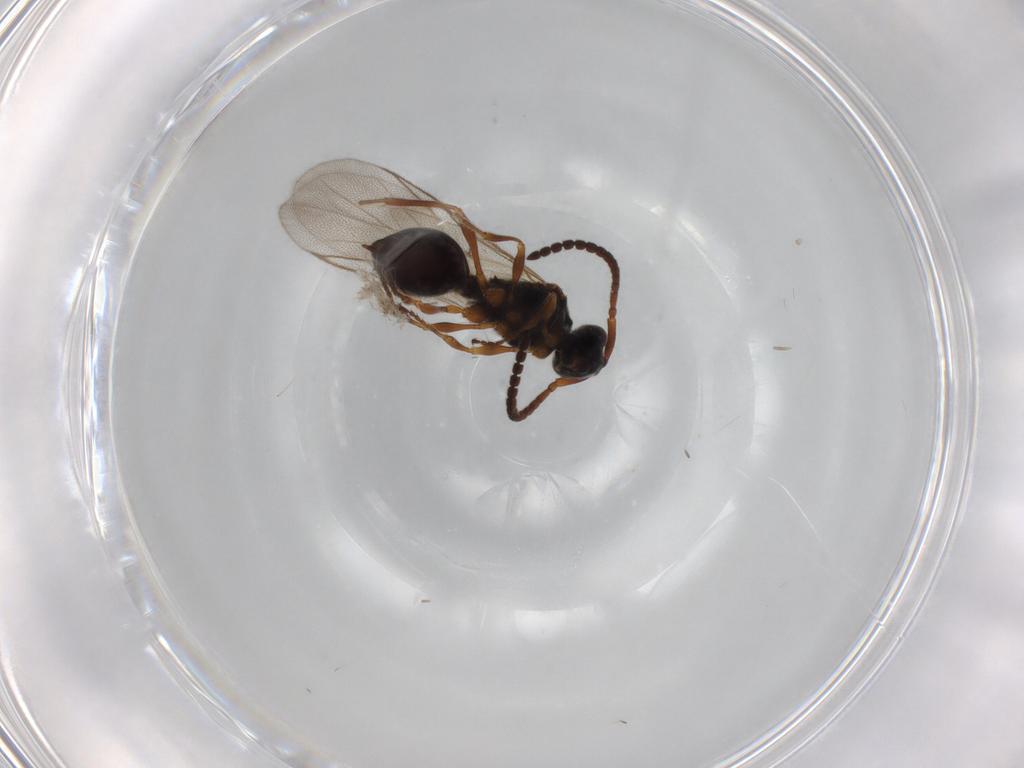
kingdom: Animalia
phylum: Arthropoda
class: Insecta
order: Hymenoptera
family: Vespidae
